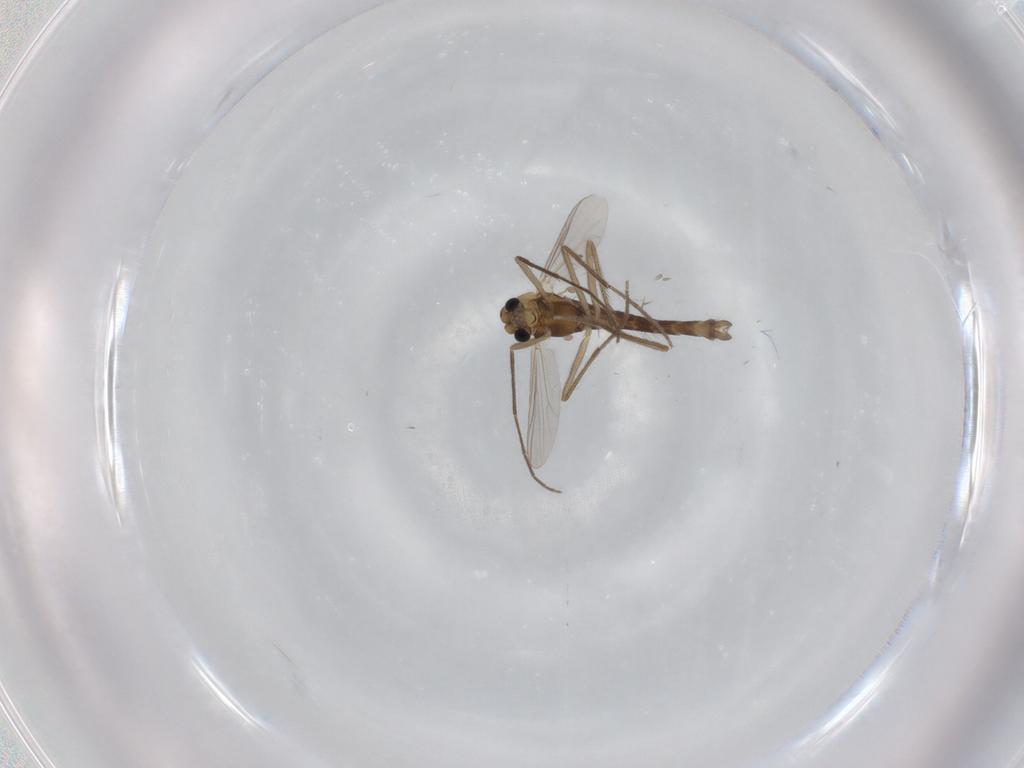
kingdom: Animalia
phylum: Arthropoda
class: Insecta
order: Diptera
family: Chironomidae
